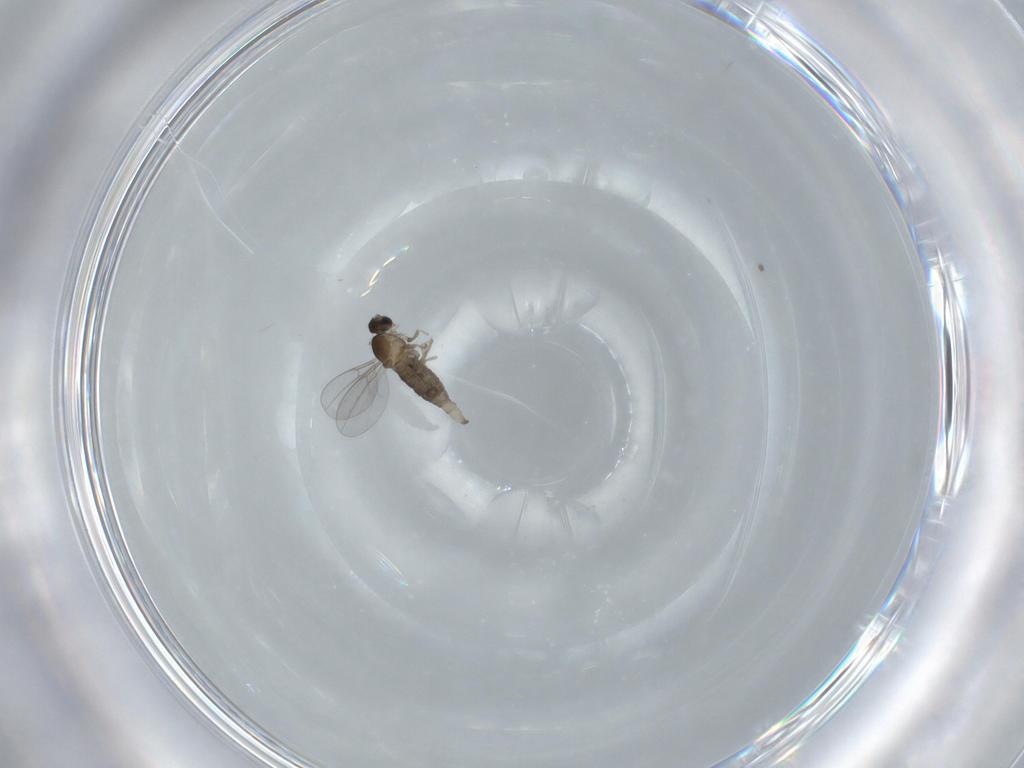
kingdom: Animalia
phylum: Arthropoda
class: Insecta
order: Diptera
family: Cecidomyiidae
